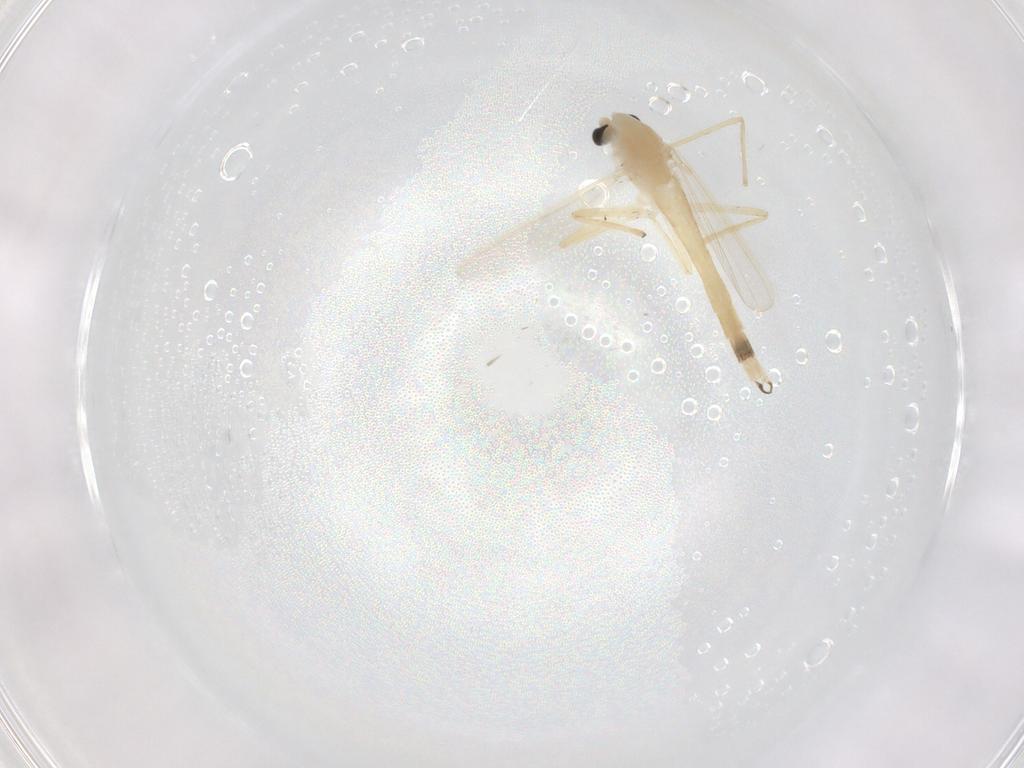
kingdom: Animalia
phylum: Arthropoda
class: Insecta
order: Diptera
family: Chironomidae
